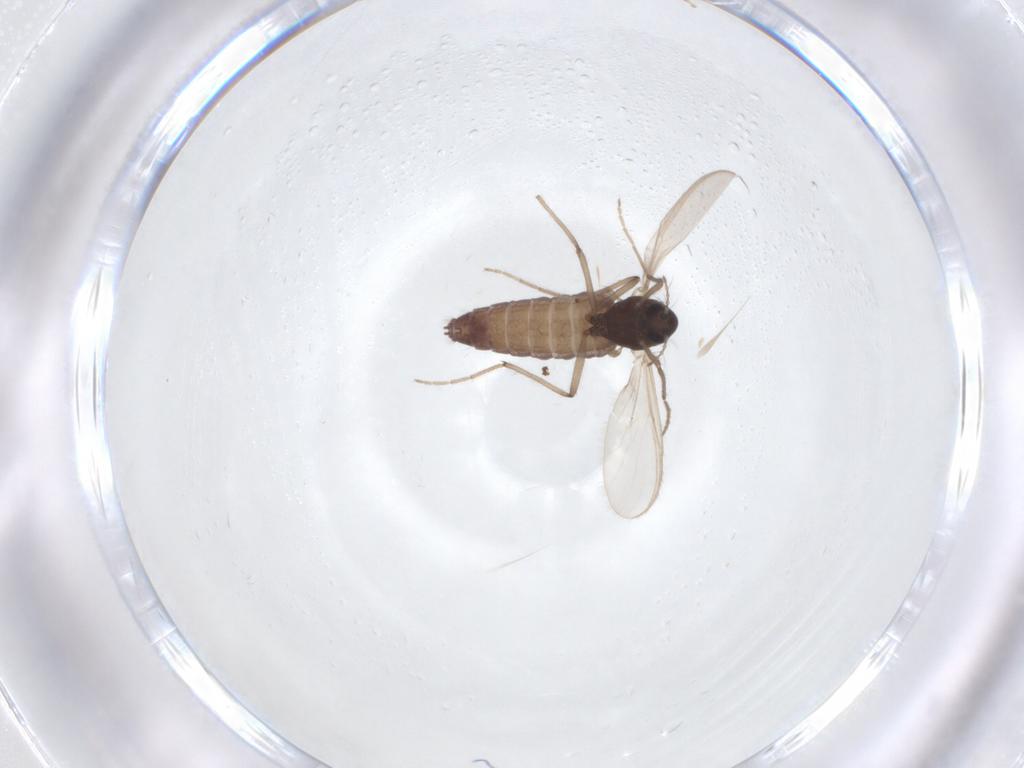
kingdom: Animalia
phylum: Arthropoda
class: Insecta
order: Diptera
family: Chironomidae
